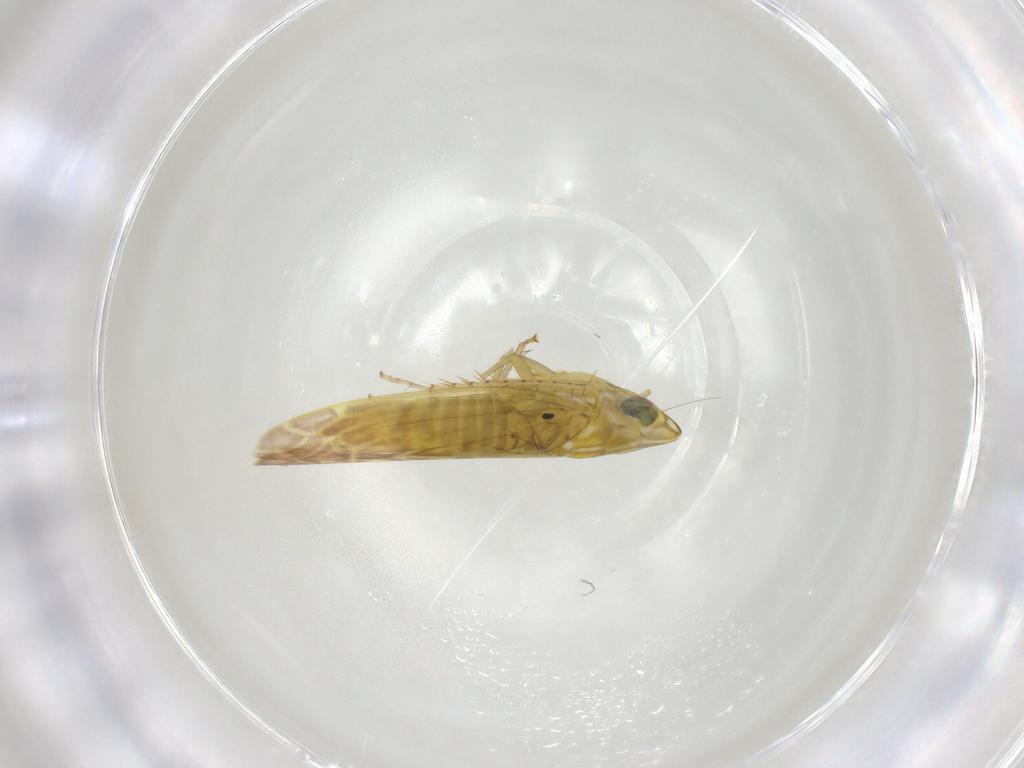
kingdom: Animalia
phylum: Arthropoda
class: Insecta
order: Hemiptera
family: Cicadellidae
